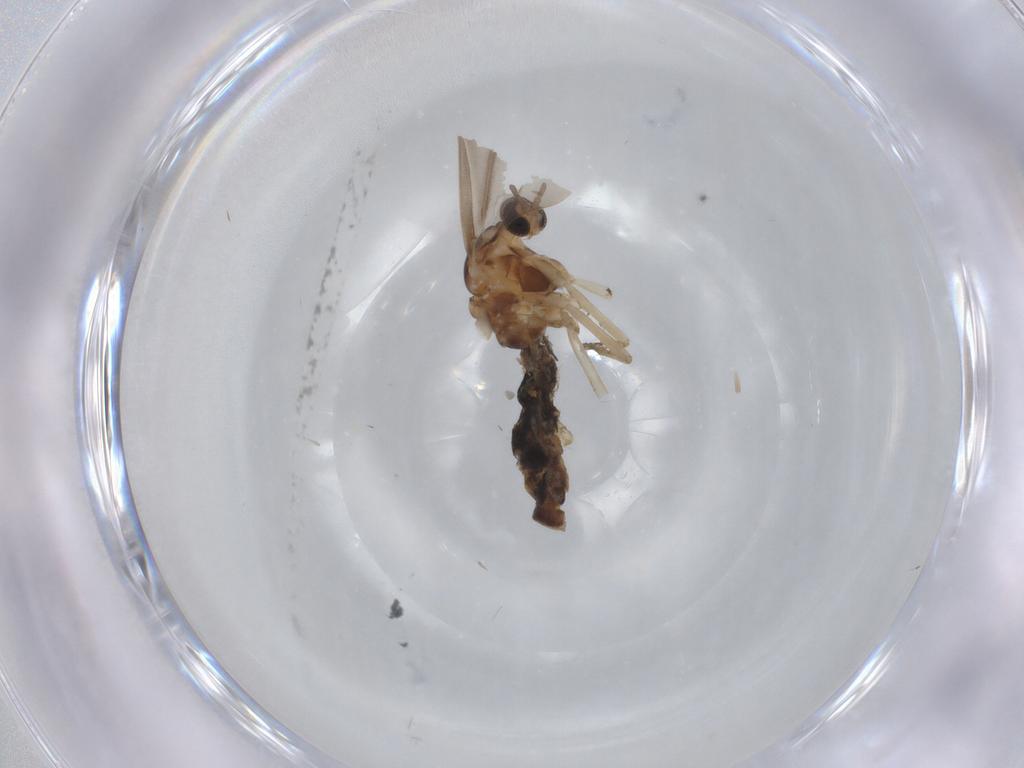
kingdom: Animalia
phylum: Arthropoda
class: Insecta
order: Diptera
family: Cecidomyiidae
